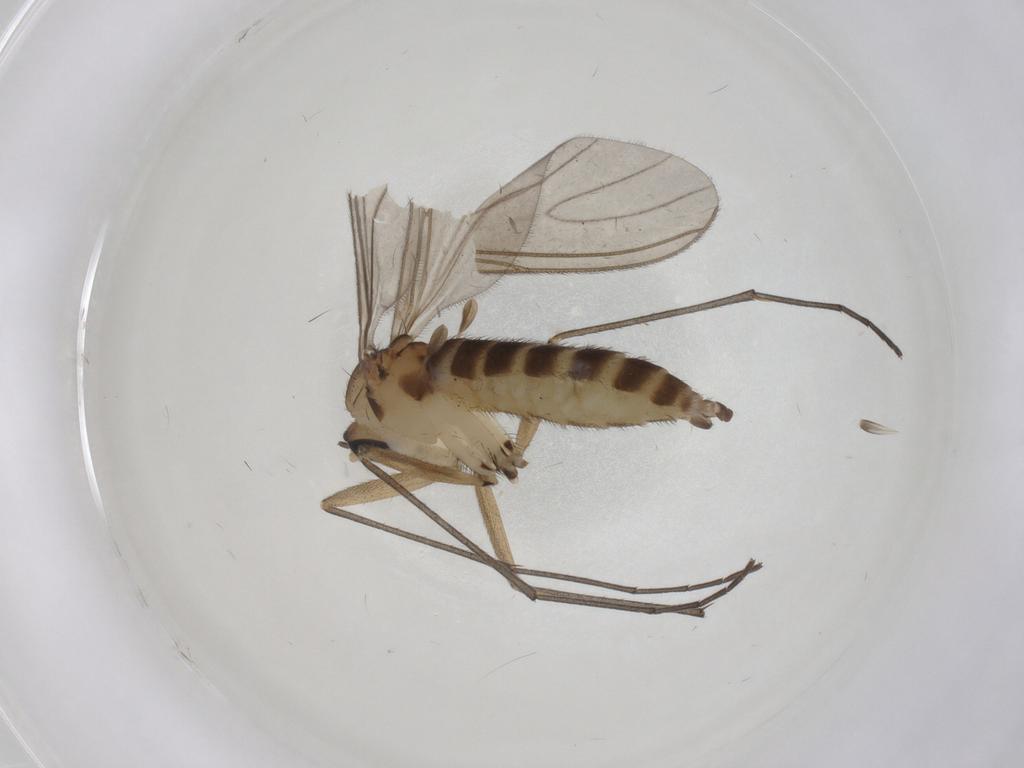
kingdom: Animalia
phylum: Arthropoda
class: Insecta
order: Diptera
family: Sciaridae
